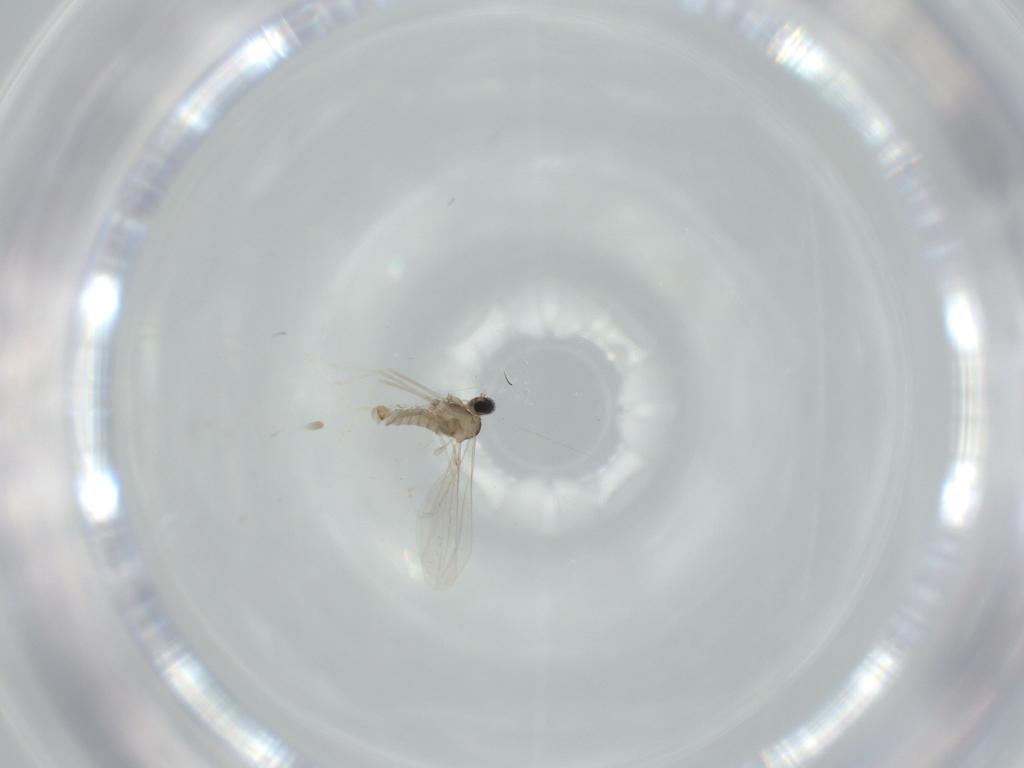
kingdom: Animalia
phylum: Arthropoda
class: Insecta
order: Diptera
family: Cecidomyiidae
